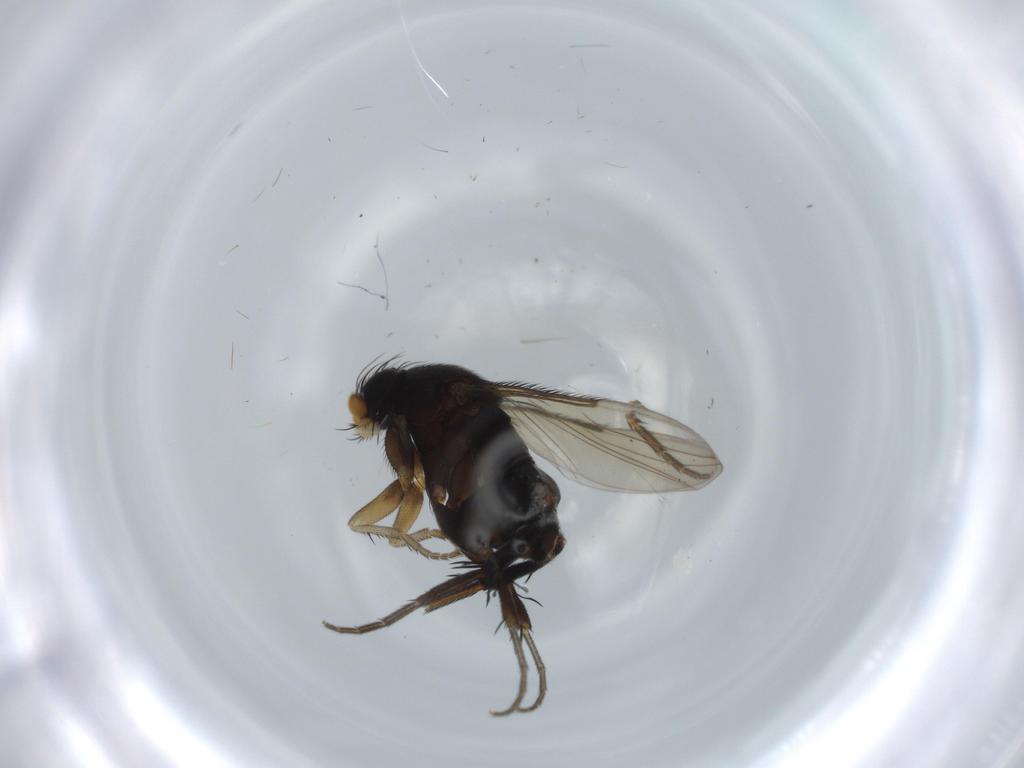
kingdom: Animalia
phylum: Arthropoda
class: Insecta
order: Diptera
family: Phoridae
